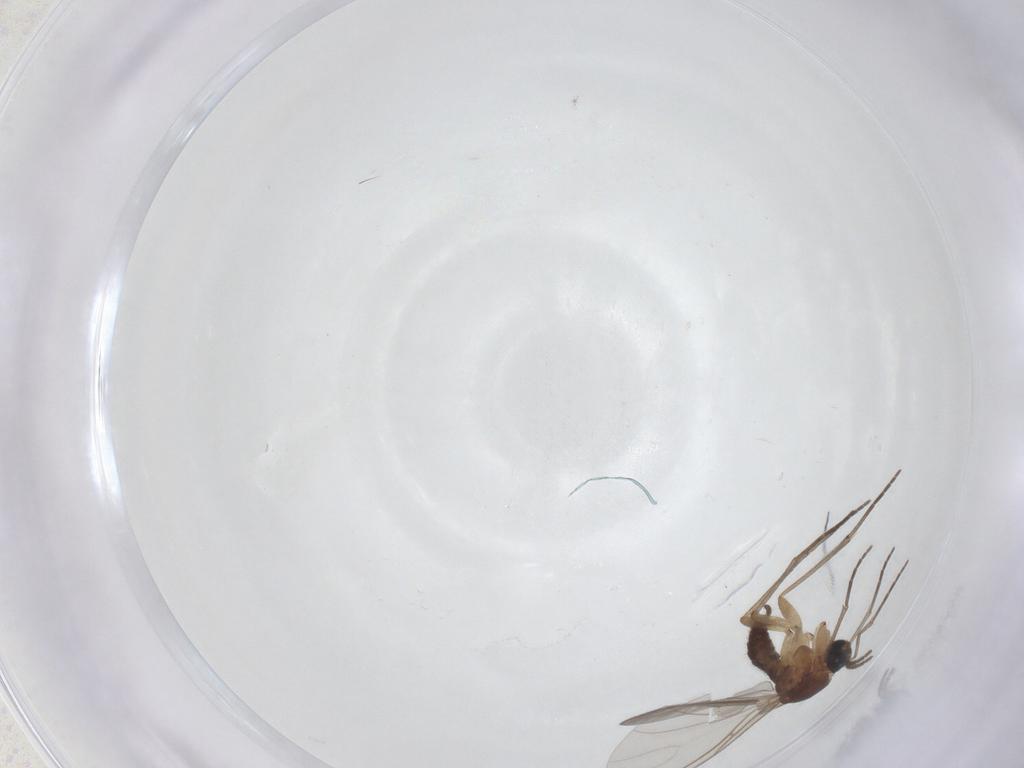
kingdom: Animalia
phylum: Arthropoda
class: Insecta
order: Diptera
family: Sciaridae
